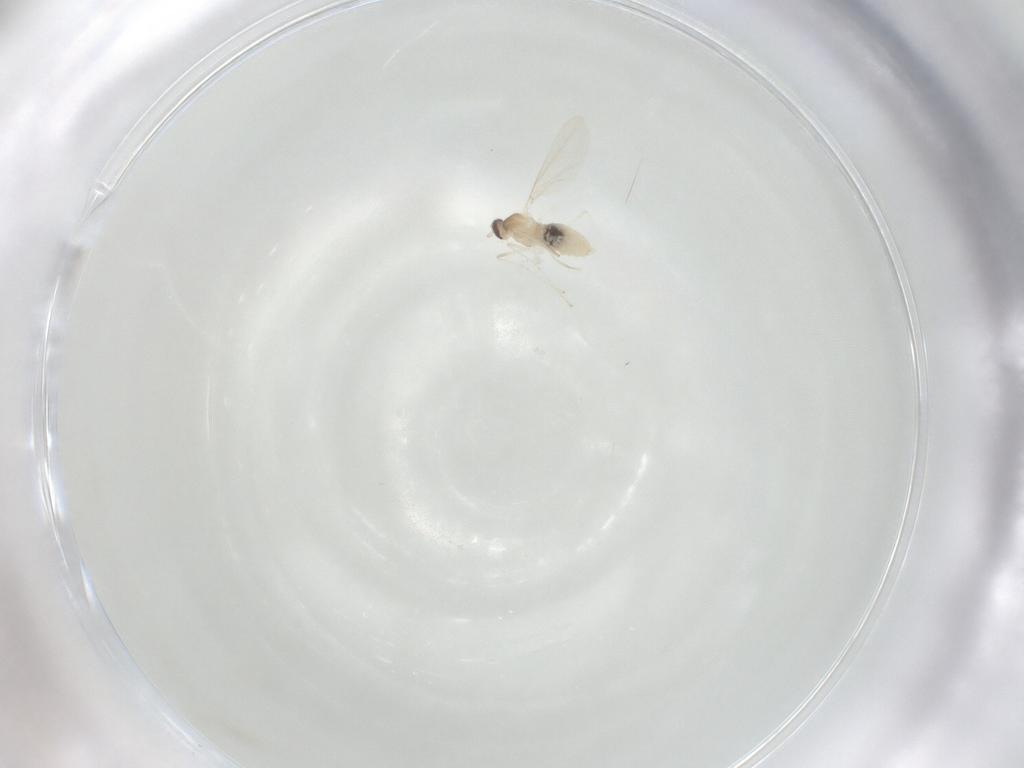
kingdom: Animalia
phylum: Arthropoda
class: Insecta
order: Diptera
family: Cecidomyiidae
